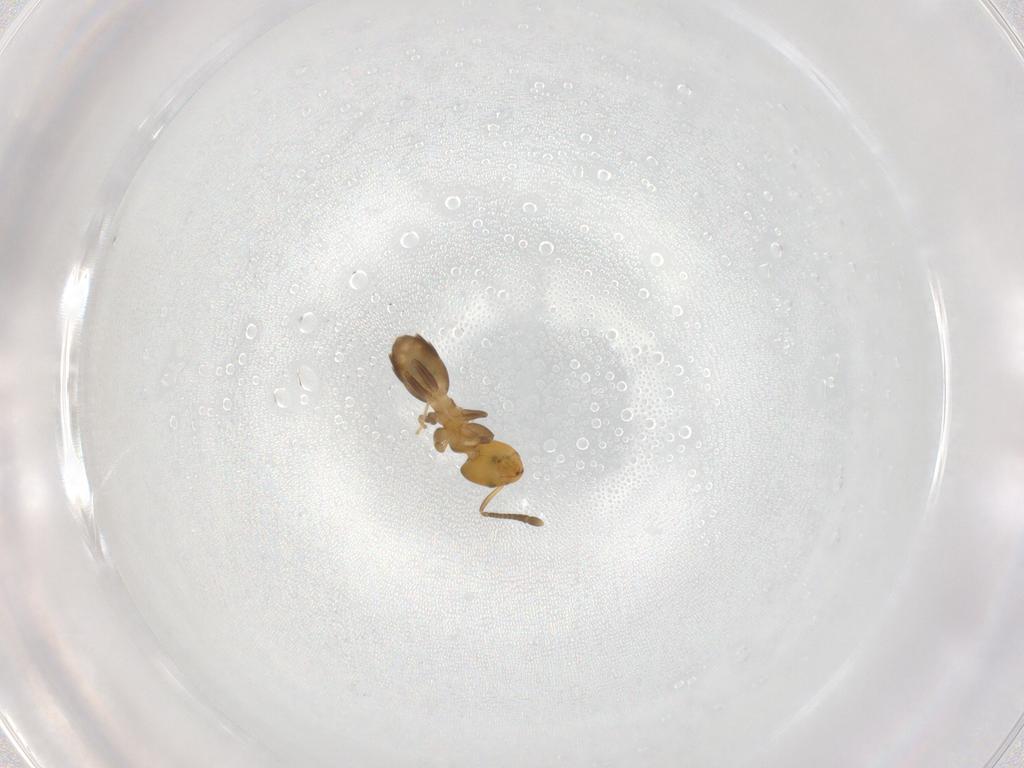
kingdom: Animalia
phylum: Arthropoda
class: Insecta
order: Hymenoptera
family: Formicidae
